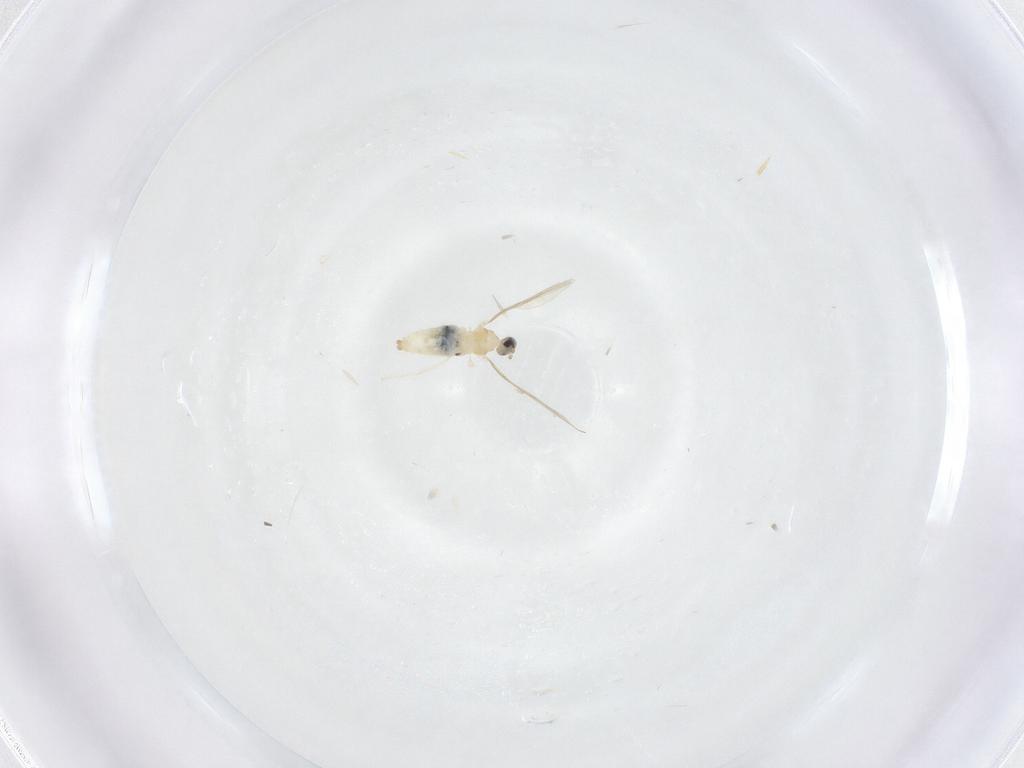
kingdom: Animalia
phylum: Arthropoda
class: Insecta
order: Diptera
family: Cecidomyiidae
